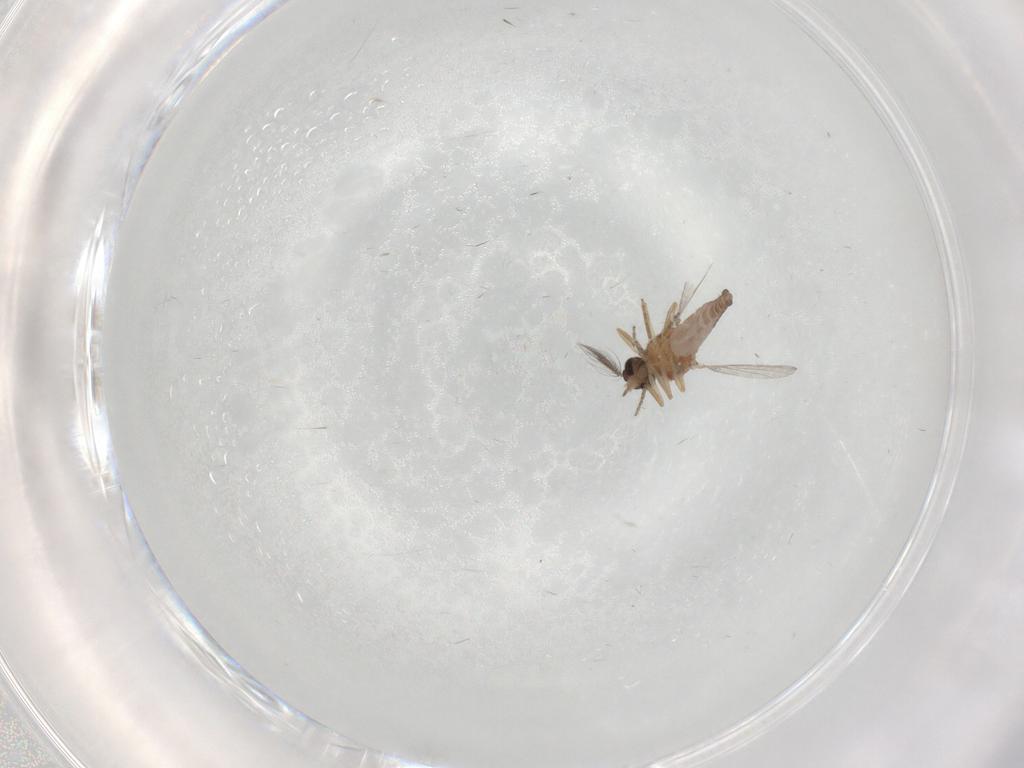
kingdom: Animalia
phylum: Arthropoda
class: Insecta
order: Diptera
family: Ceratopogonidae
